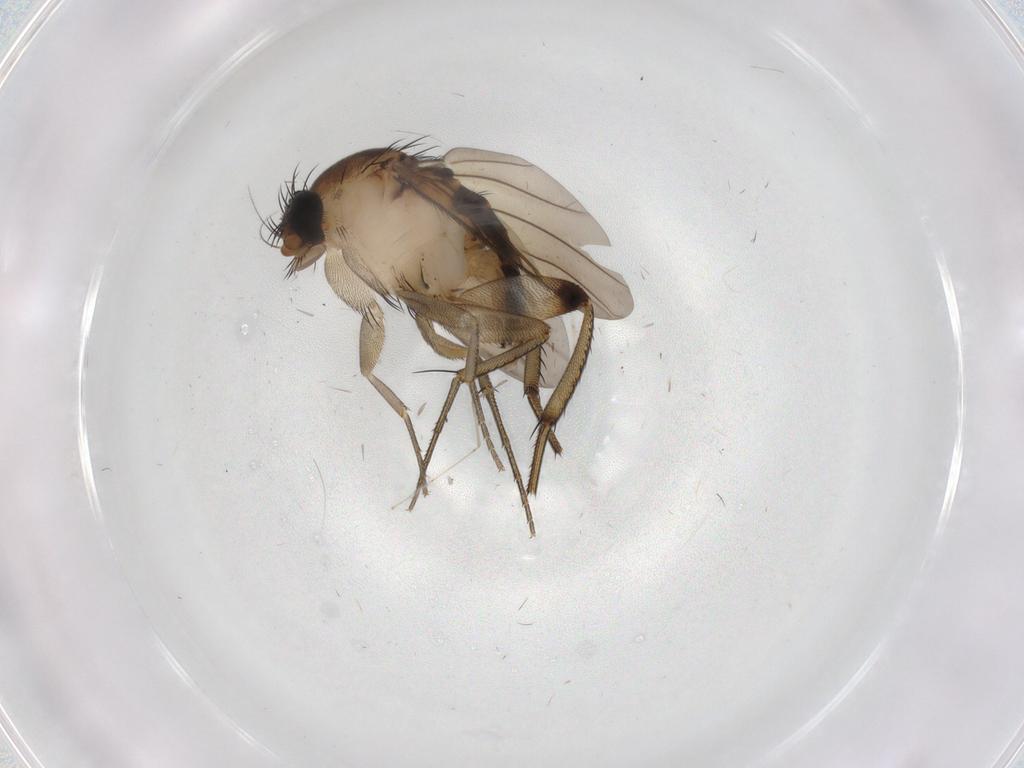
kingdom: Animalia
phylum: Arthropoda
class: Insecta
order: Diptera
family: Phoridae
